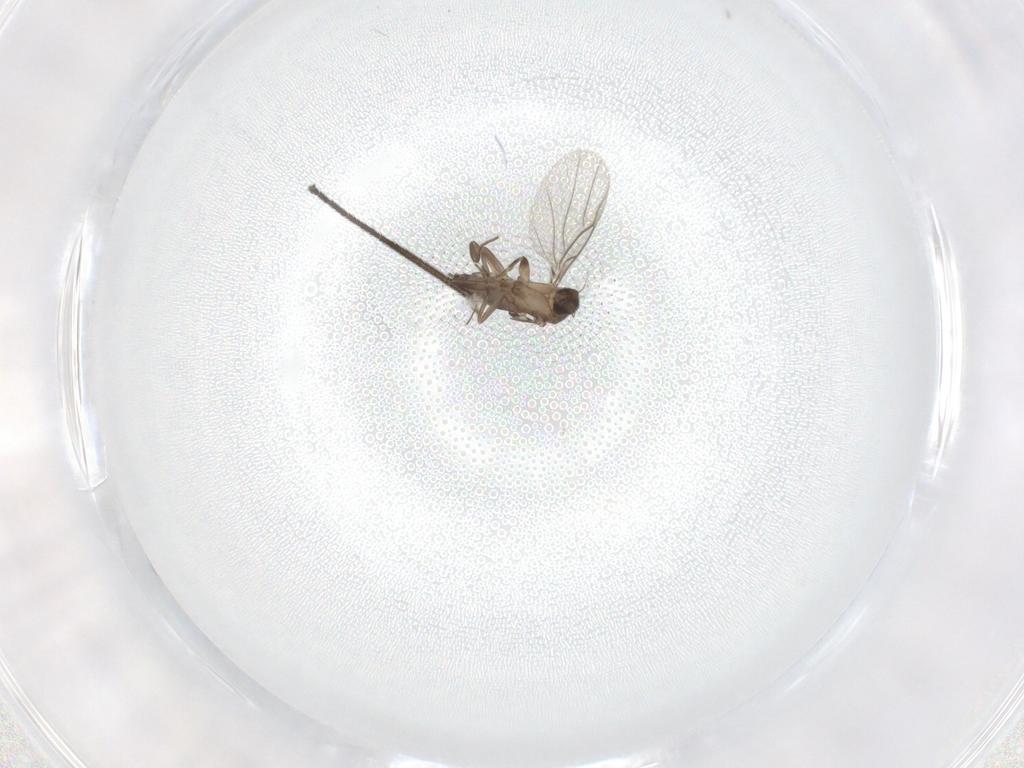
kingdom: Animalia
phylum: Arthropoda
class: Insecta
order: Diptera
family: Diadocidiidae
